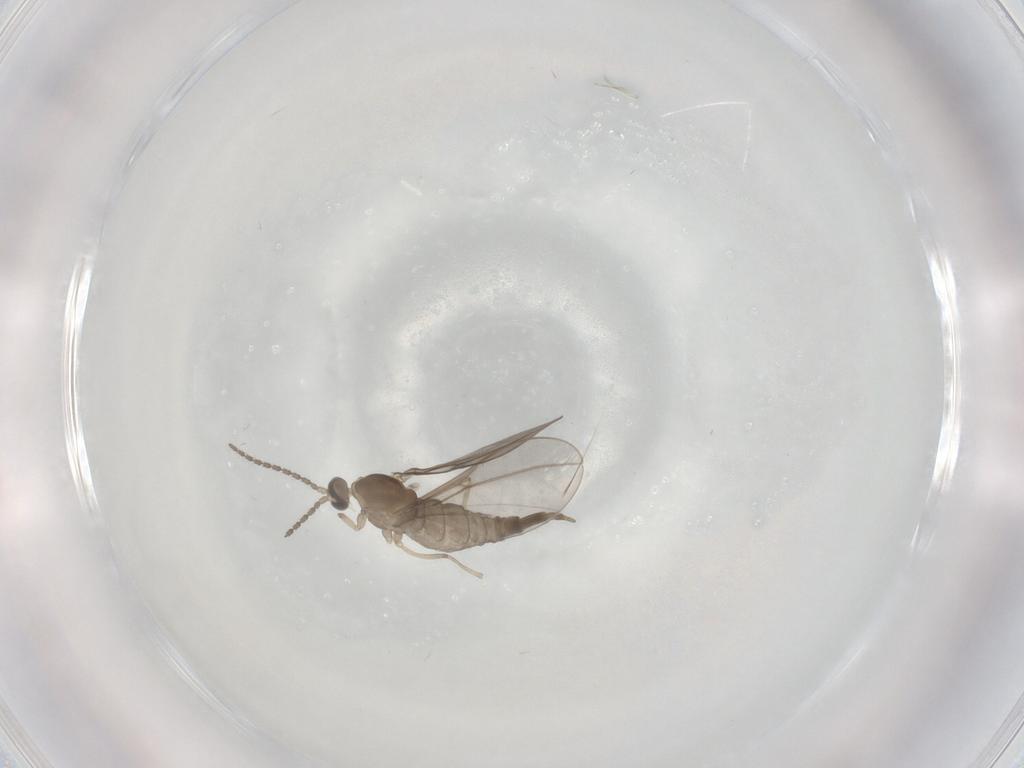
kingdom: Animalia
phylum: Arthropoda
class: Insecta
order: Diptera
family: Cecidomyiidae
